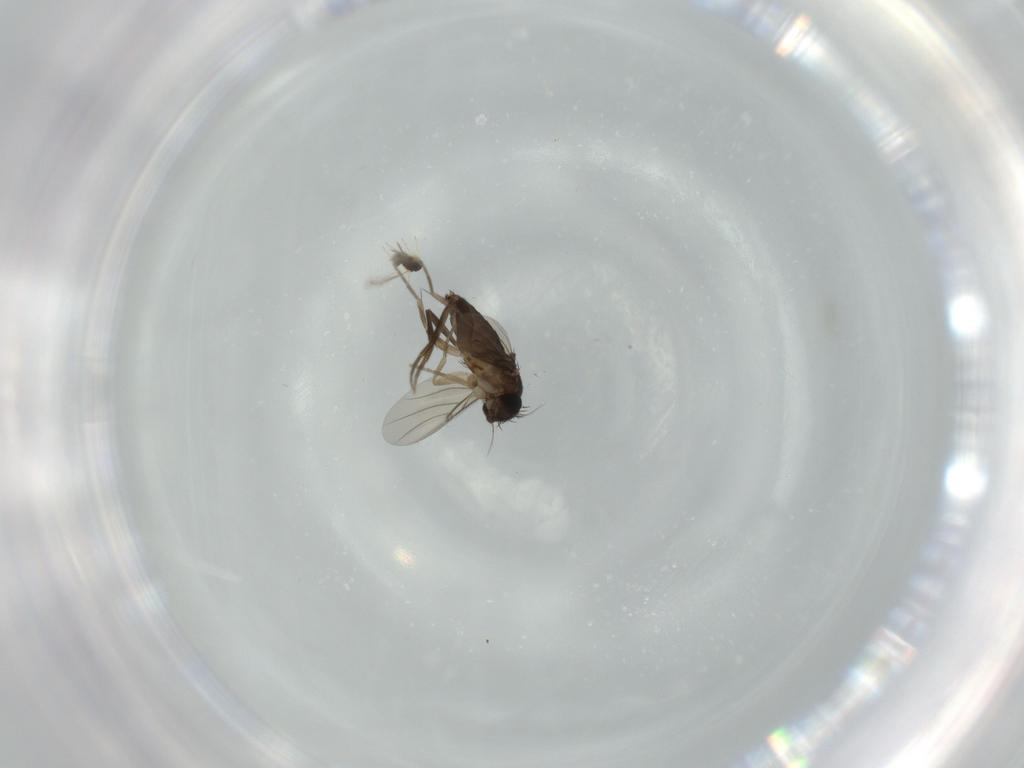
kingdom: Animalia
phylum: Arthropoda
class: Insecta
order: Diptera
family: Phoridae
